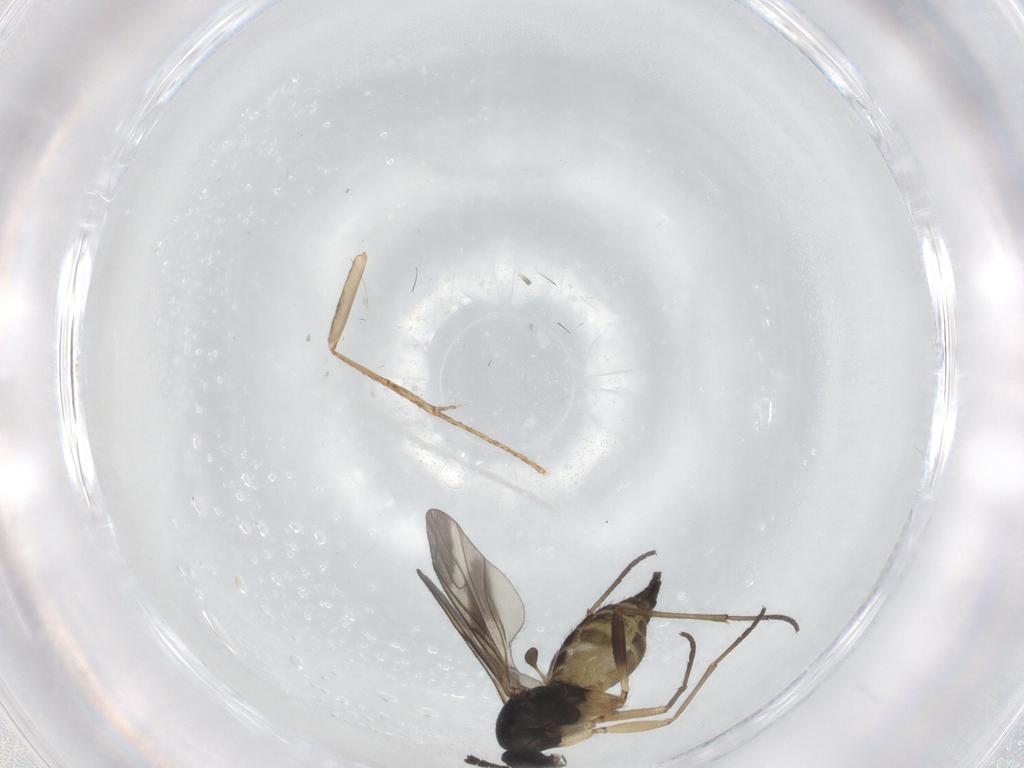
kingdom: Animalia
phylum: Arthropoda
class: Insecta
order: Diptera
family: Sciaridae
